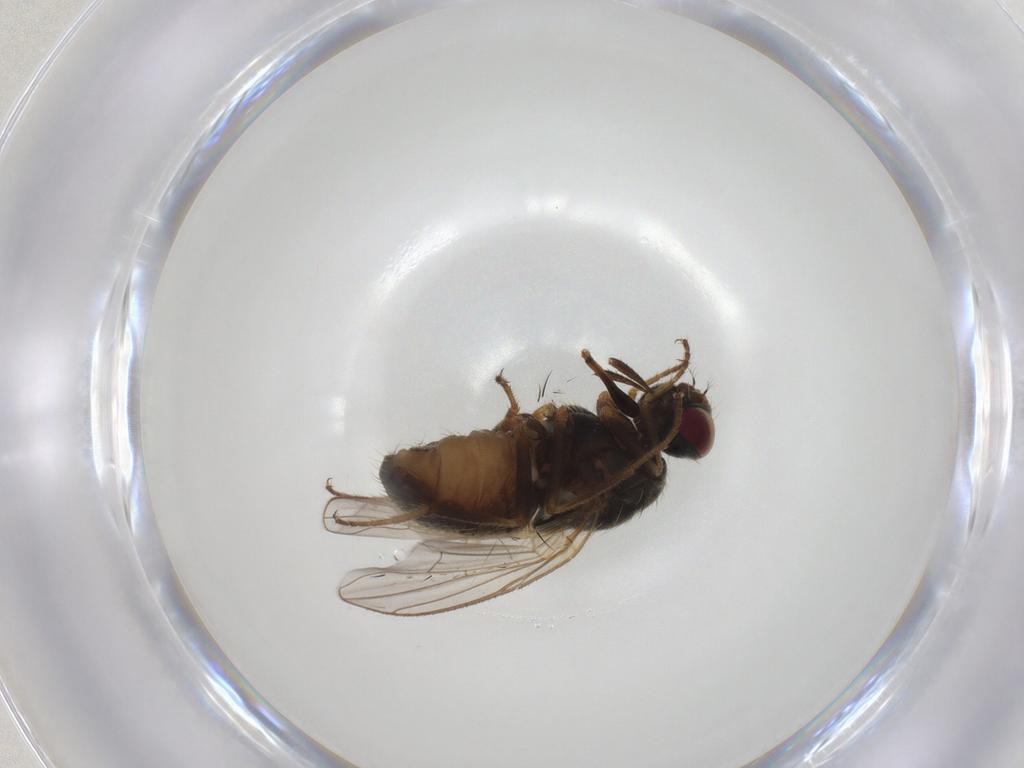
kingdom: Animalia
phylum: Arthropoda
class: Insecta
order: Diptera
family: Muscidae
